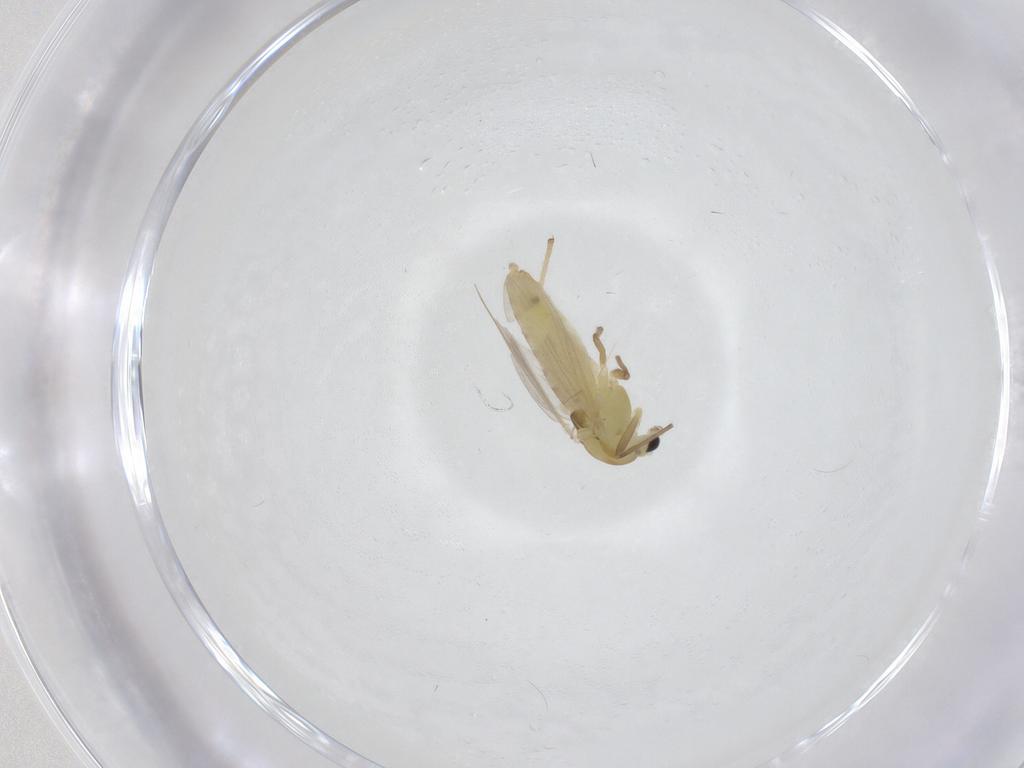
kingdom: Animalia
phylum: Arthropoda
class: Insecta
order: Diptera
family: Chironomidae
